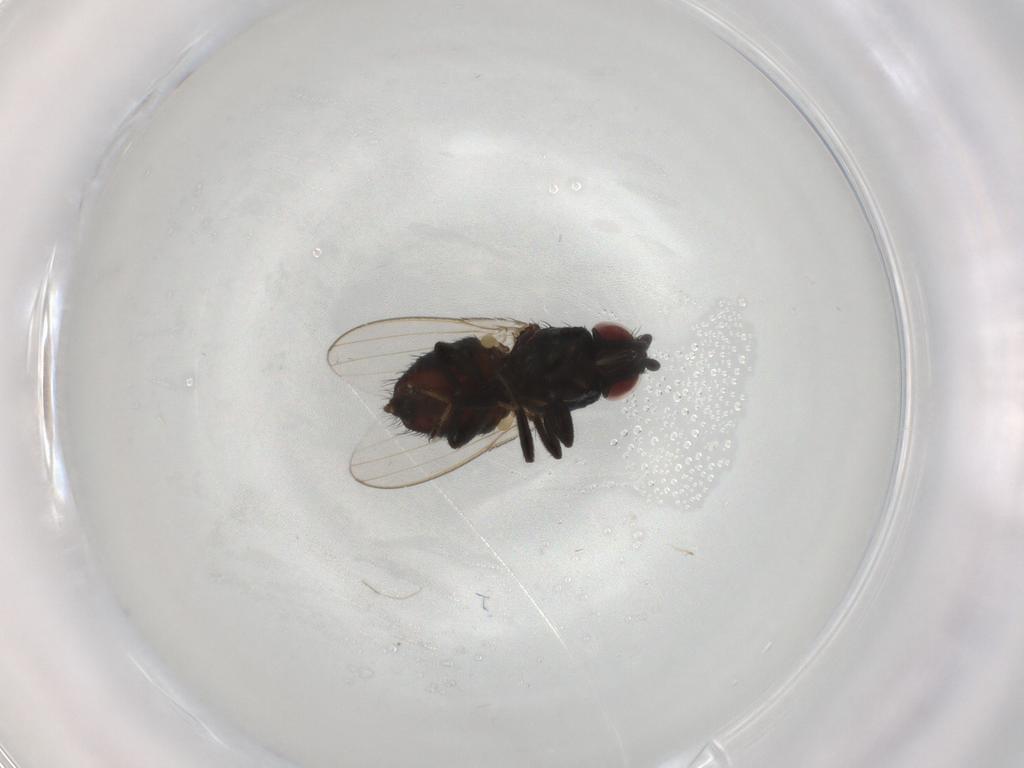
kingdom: Animalia
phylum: Arthropoda
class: Insecta
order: Diptera
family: Milichiidae
